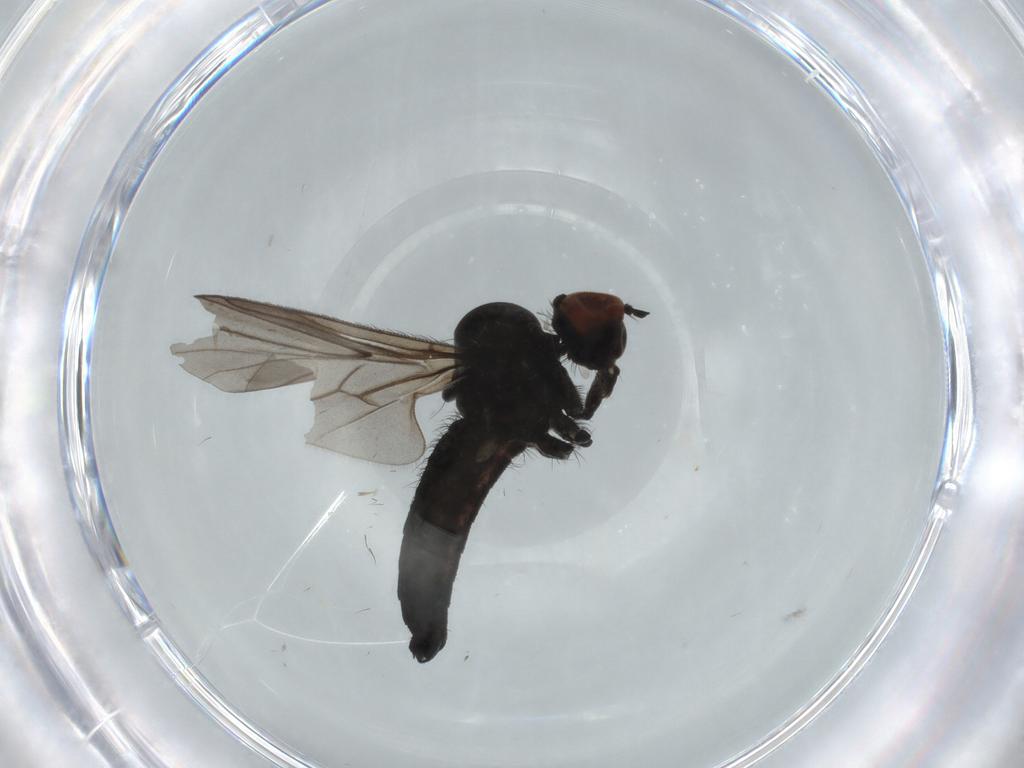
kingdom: Animalia
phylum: Arthropoda
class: Insecta
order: Diptera
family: Hybotidae
